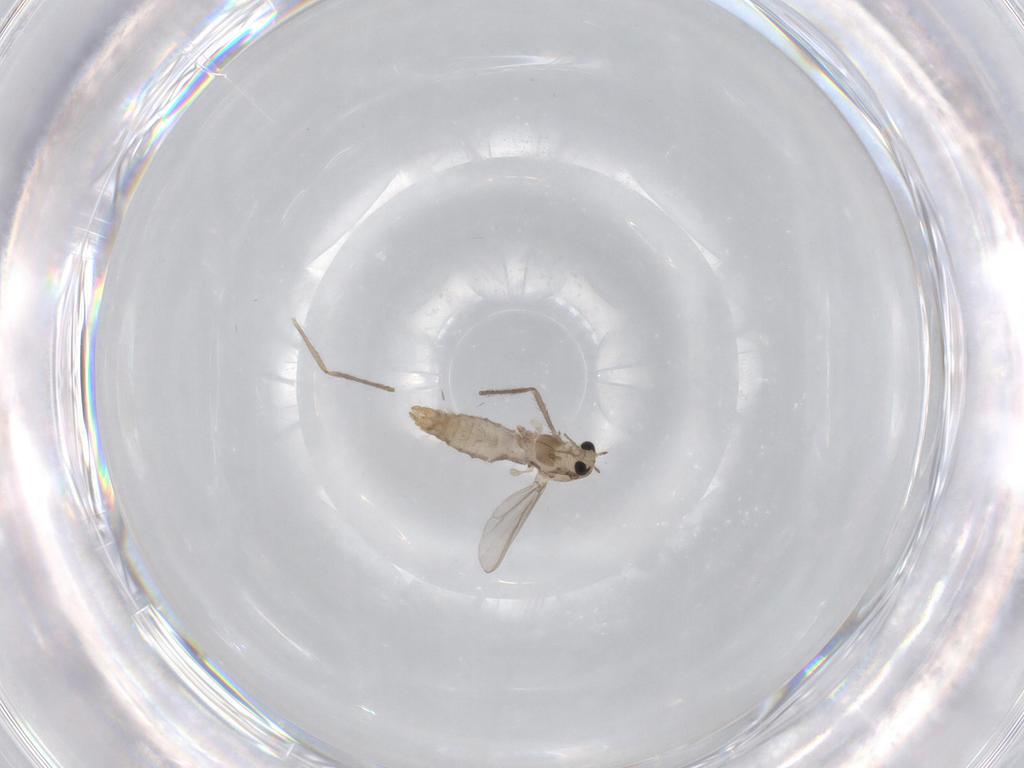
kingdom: Animalia
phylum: Arthropoda
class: Insecta
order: Diptera
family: Chironomidae
